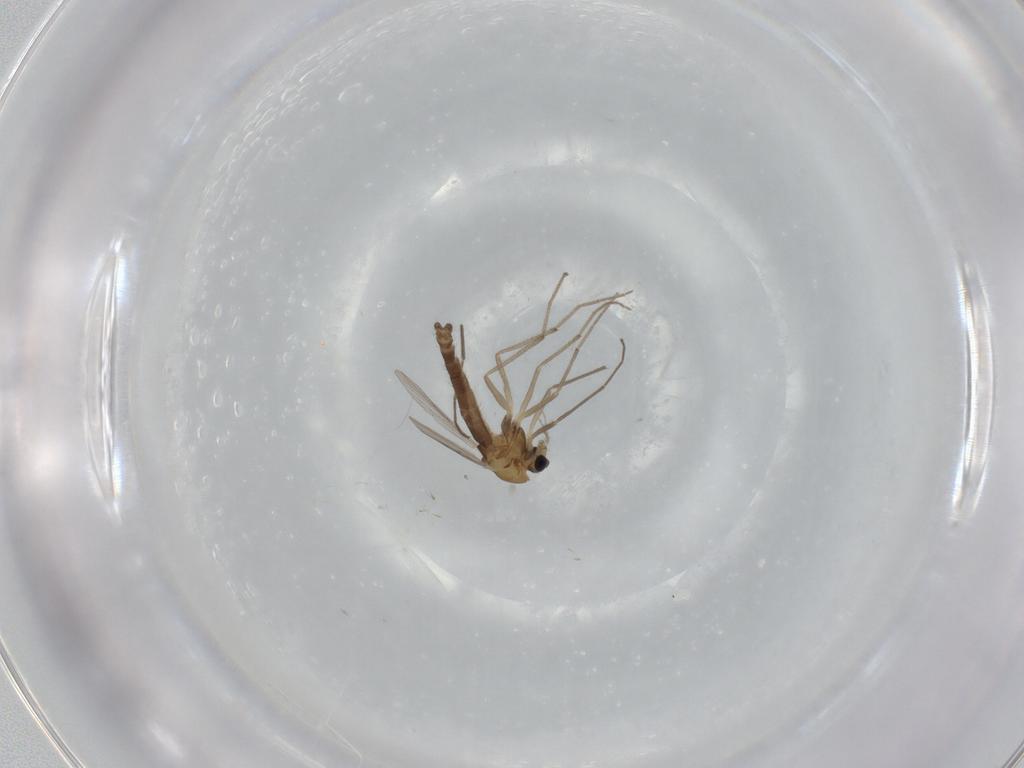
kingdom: Animalia
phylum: Arthropoda
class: Insecta
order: Diptera
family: Chironomidae
